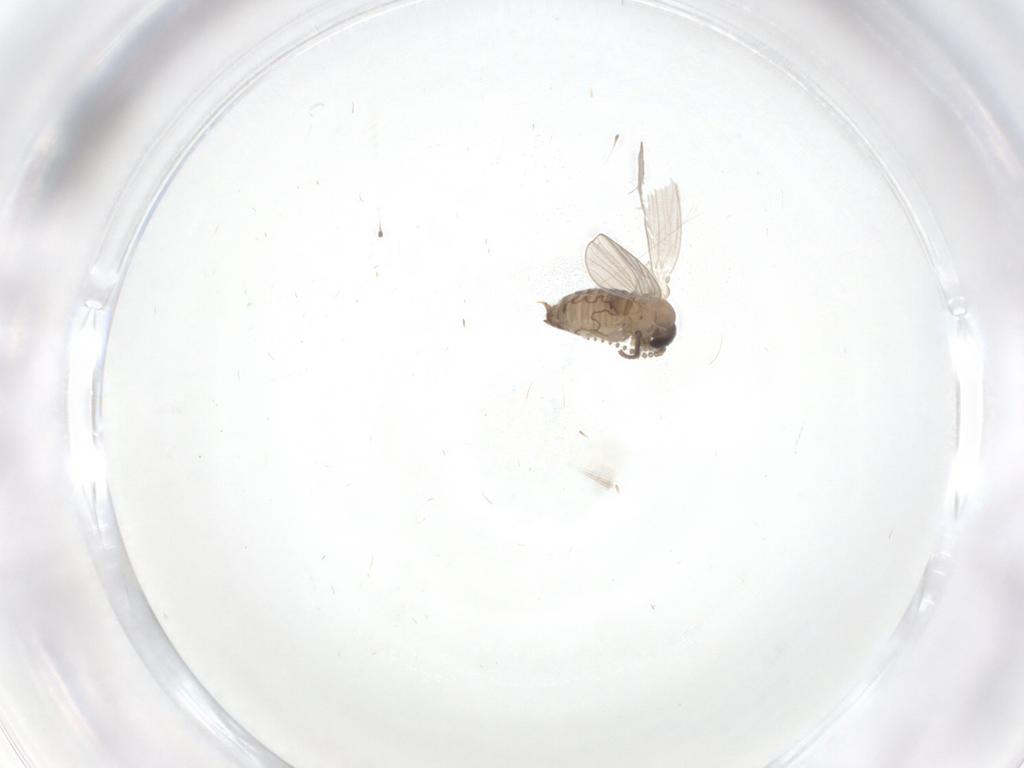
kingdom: Animalia
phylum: Arthropoda
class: Insecta
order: Diptera
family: Psychodidae
